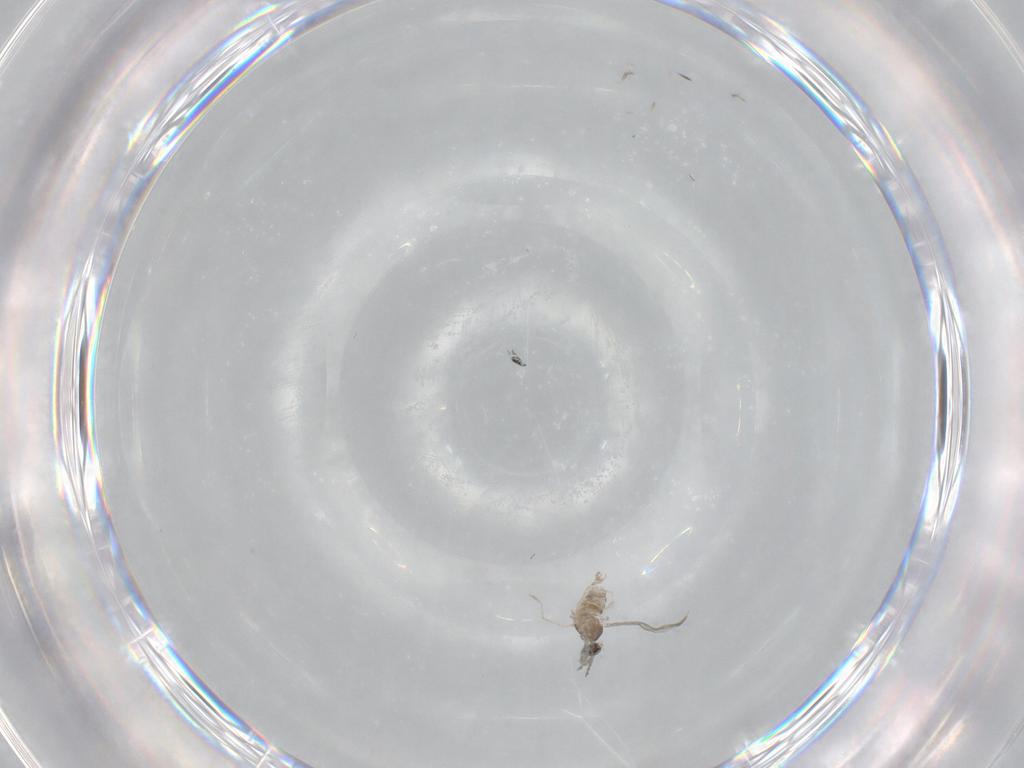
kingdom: Animalia
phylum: Arthropoda
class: Insecta
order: Diptera
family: Cecidomyiidae
